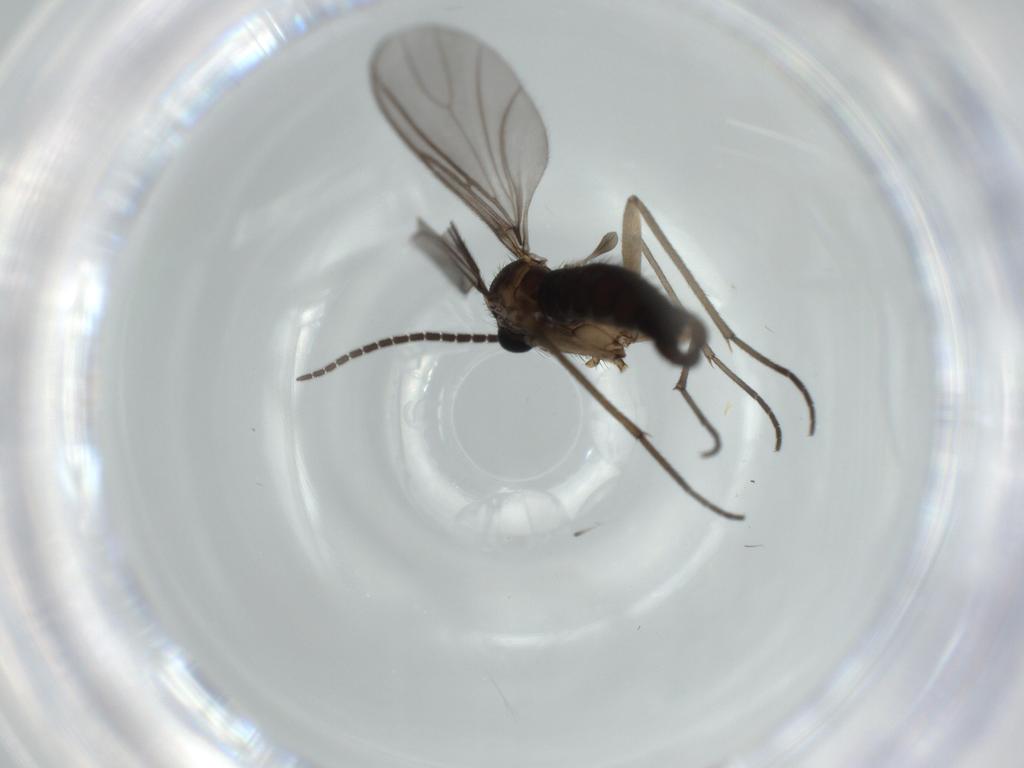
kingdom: Animalia
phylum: Arthropoda
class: Insecta
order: Diptera
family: Sciaridae
